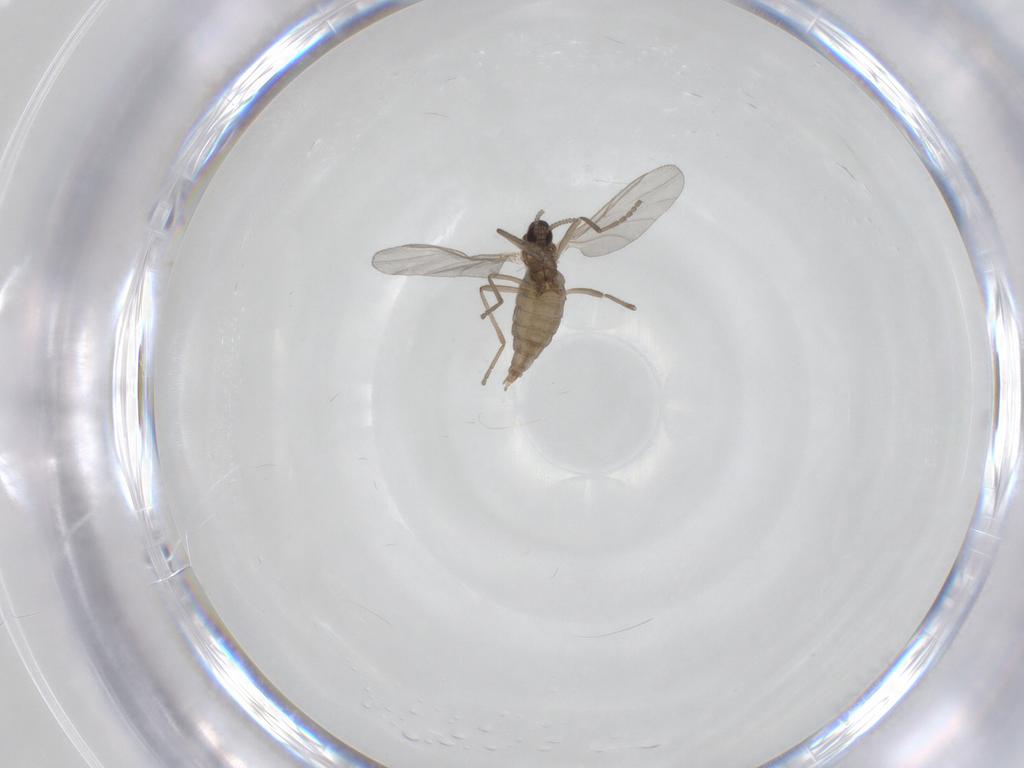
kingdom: Animalia
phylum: Arthropoda
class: Insecta
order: Diptera
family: Cecidomyiidae
